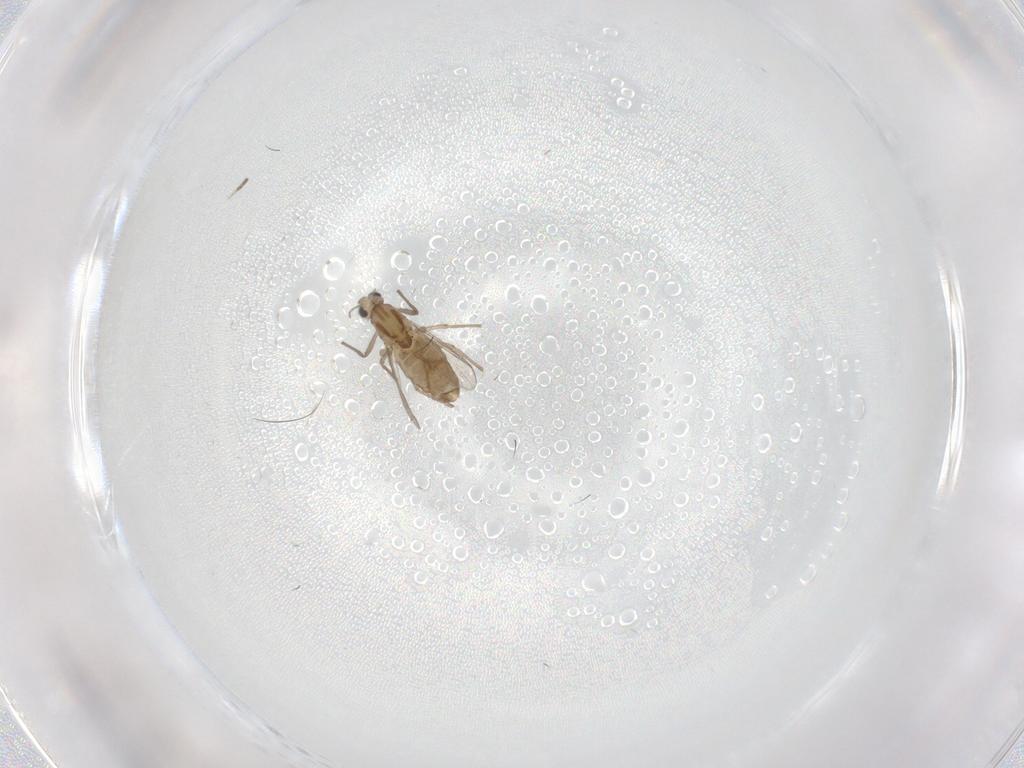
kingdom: Animalia
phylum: Arthropoda
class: Insecta
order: Diptera
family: Chironomidae
